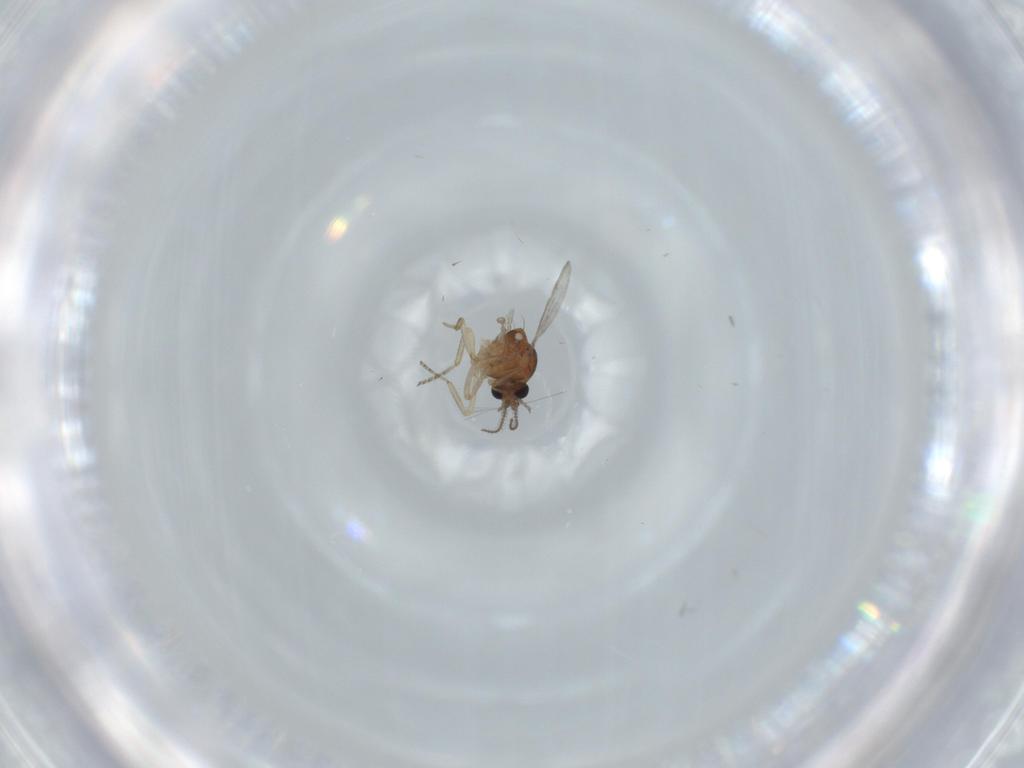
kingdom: Animalia
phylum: Arthropoda
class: Insecta
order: Diptera
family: Ceratopogonidae
